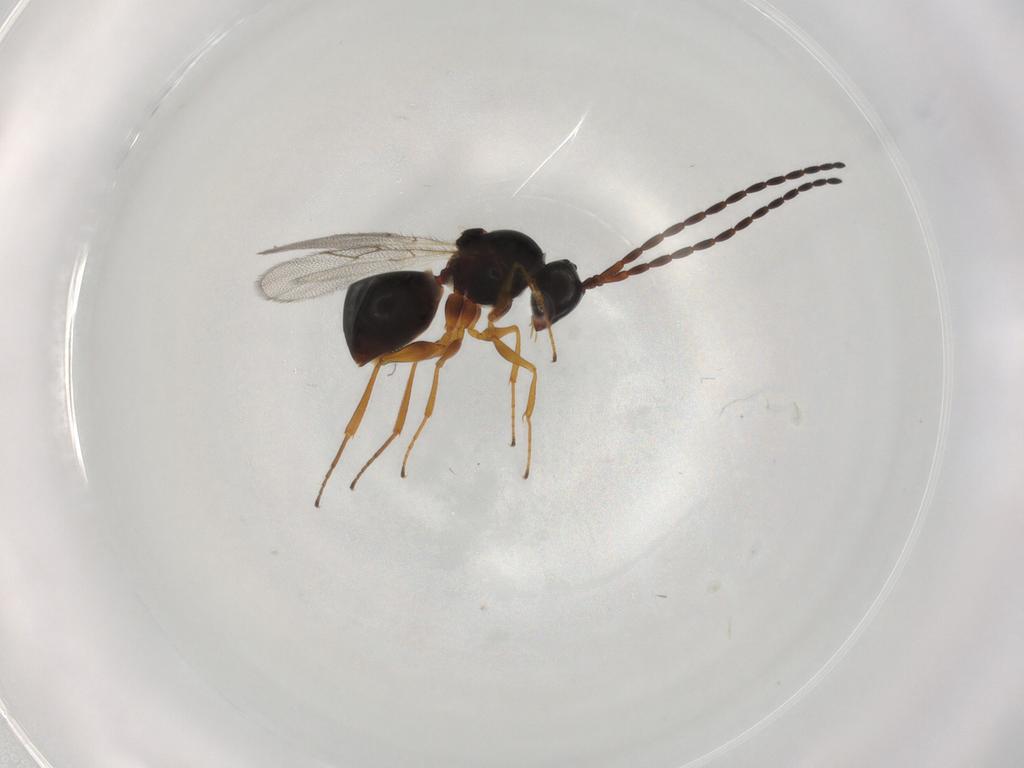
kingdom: Animalia
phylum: Arthropoda
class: Insecta
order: Hymenoptera
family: Figitidae
